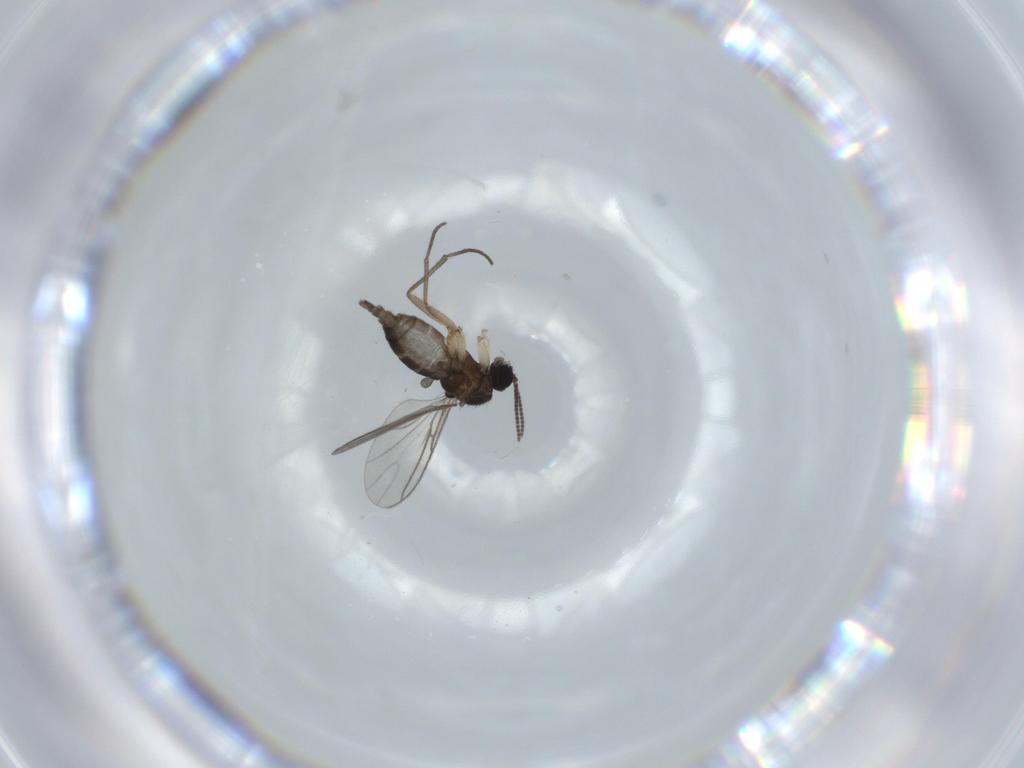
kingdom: Animalia
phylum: Arthropoda
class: Insecta
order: Diptera
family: Sciaridae
